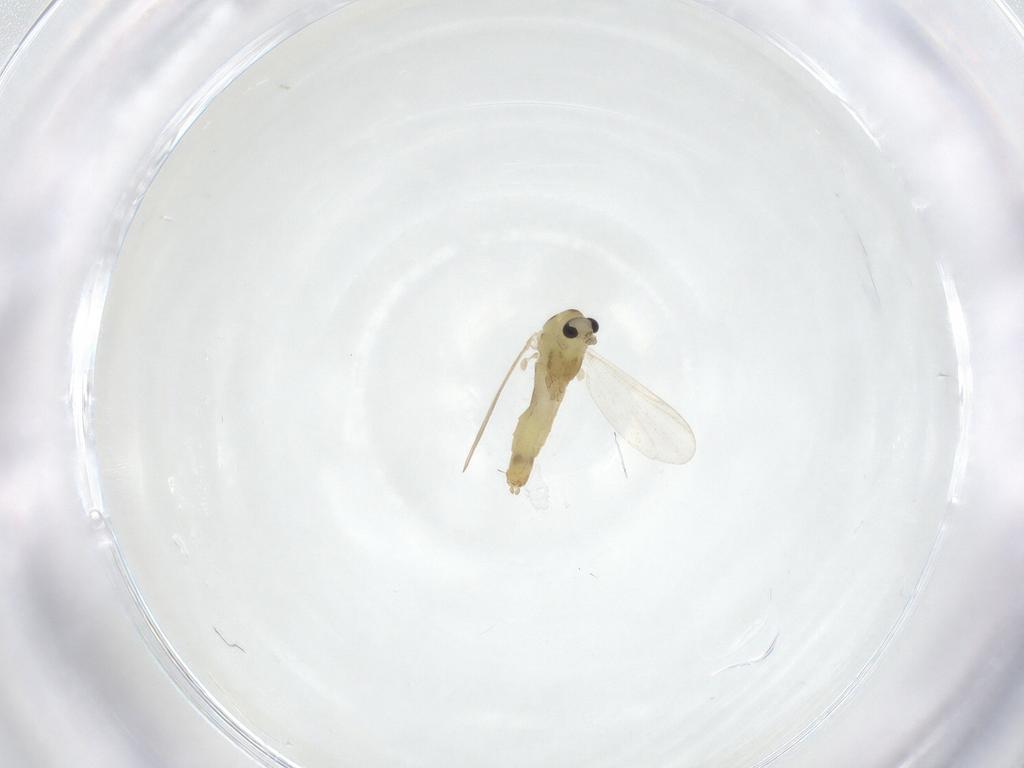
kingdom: Animalia
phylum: Arthropoda
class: Insecta
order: Diptera
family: Chironomidae
